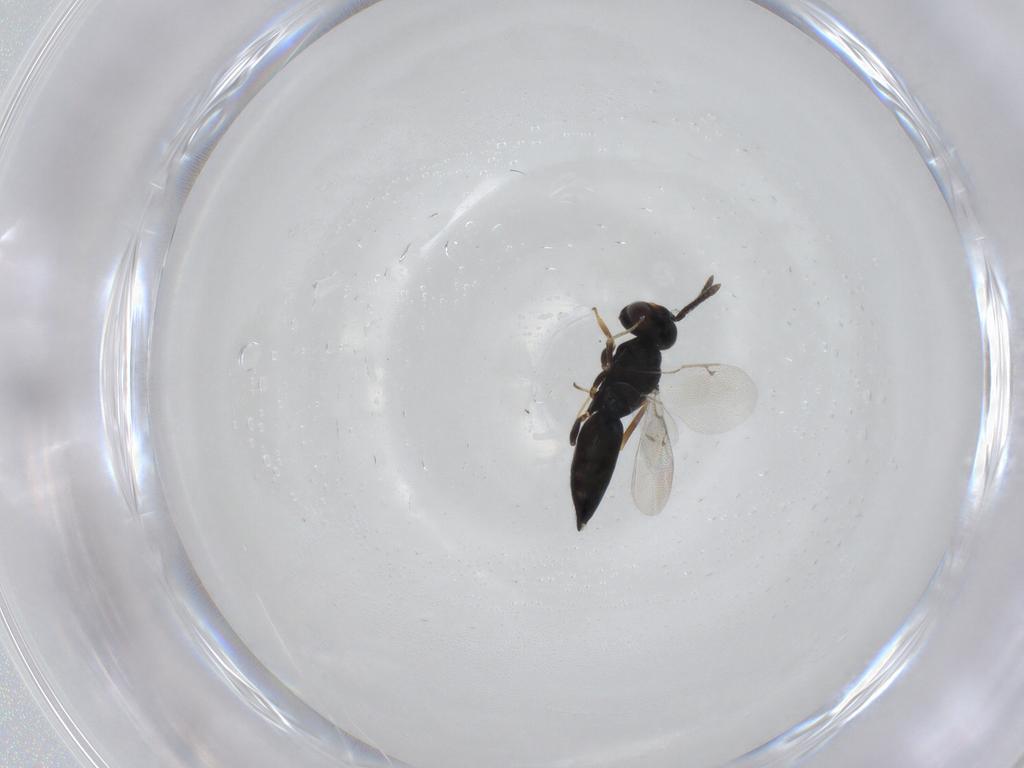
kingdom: Animalia
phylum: Arthropoda
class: Insecta
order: Hymenoptera
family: Pteromalidae
